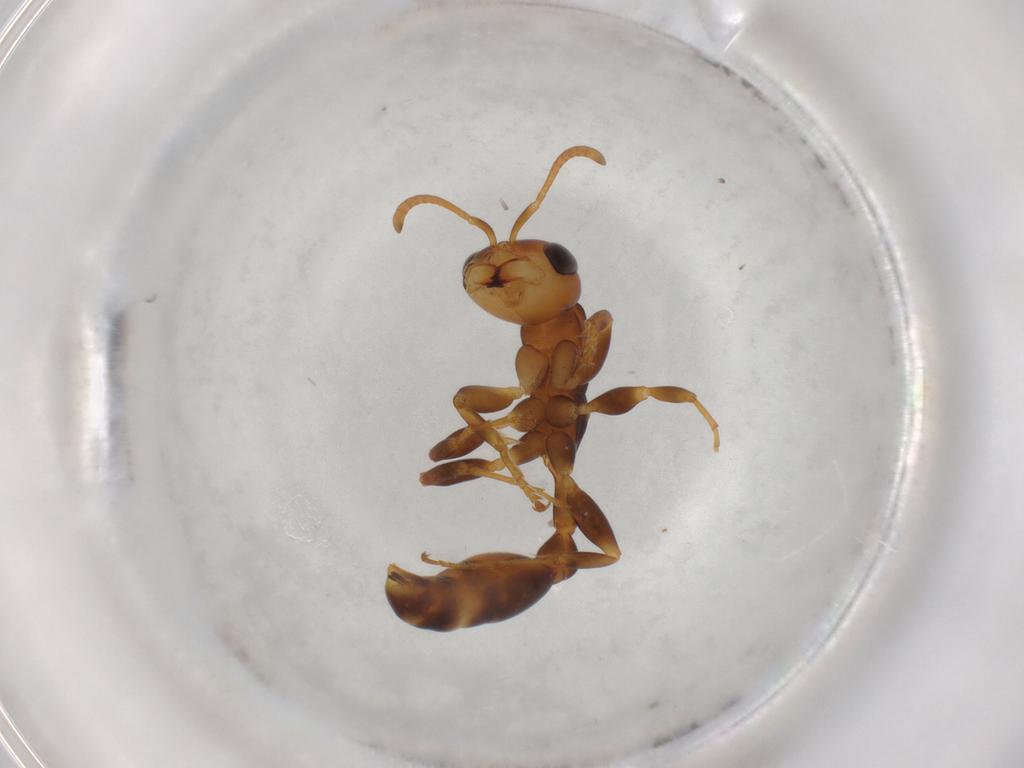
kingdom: Animalia
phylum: Arthropoda
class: Insecta
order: Hymenoptera
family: Formicidae
